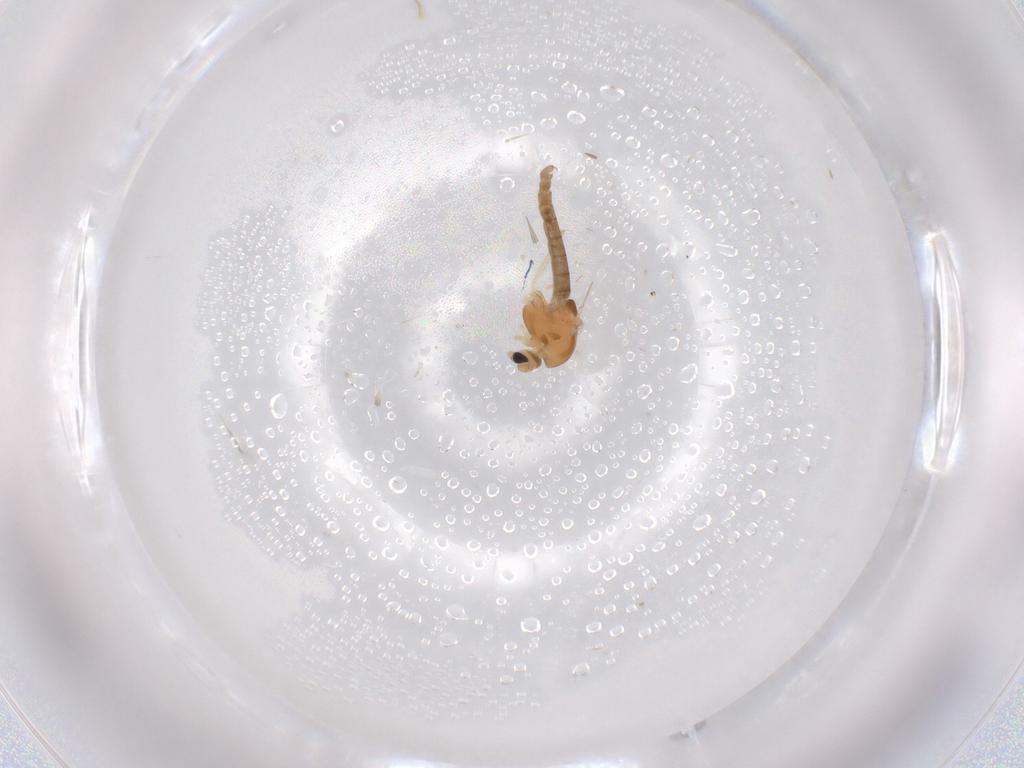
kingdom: Animalia
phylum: Arthropoda
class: Insecta
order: Diptera
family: Chironomidae
